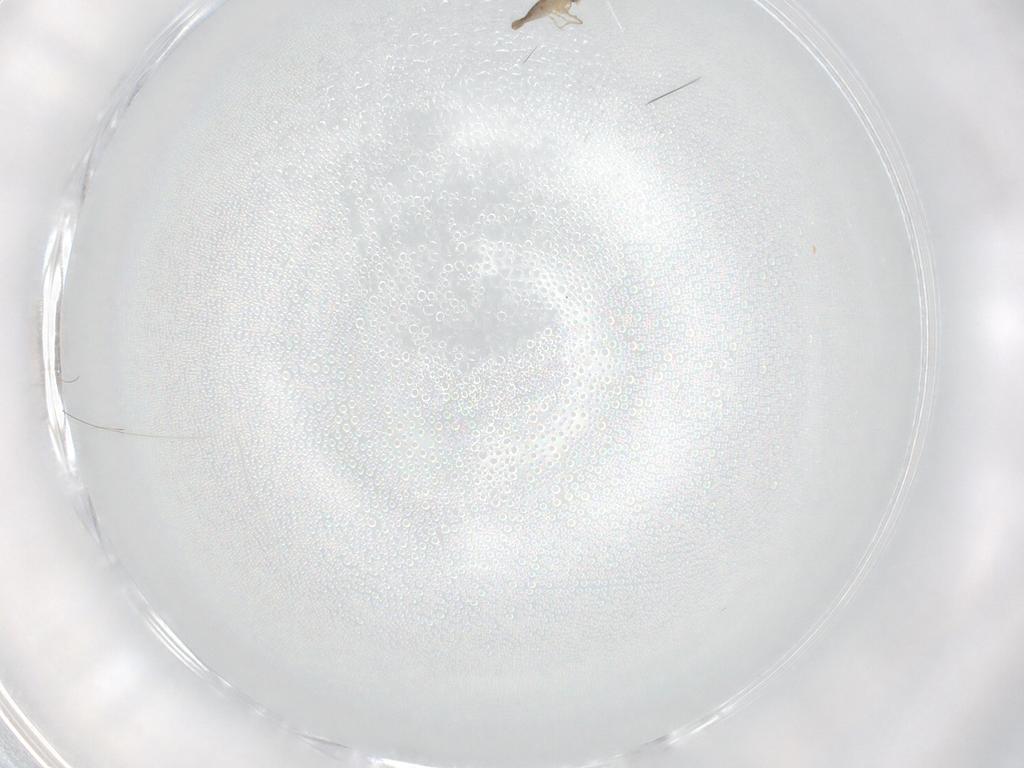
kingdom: Animalia
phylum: Arthropoda
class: Insecta
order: Diptera
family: Ceratopogonidae
